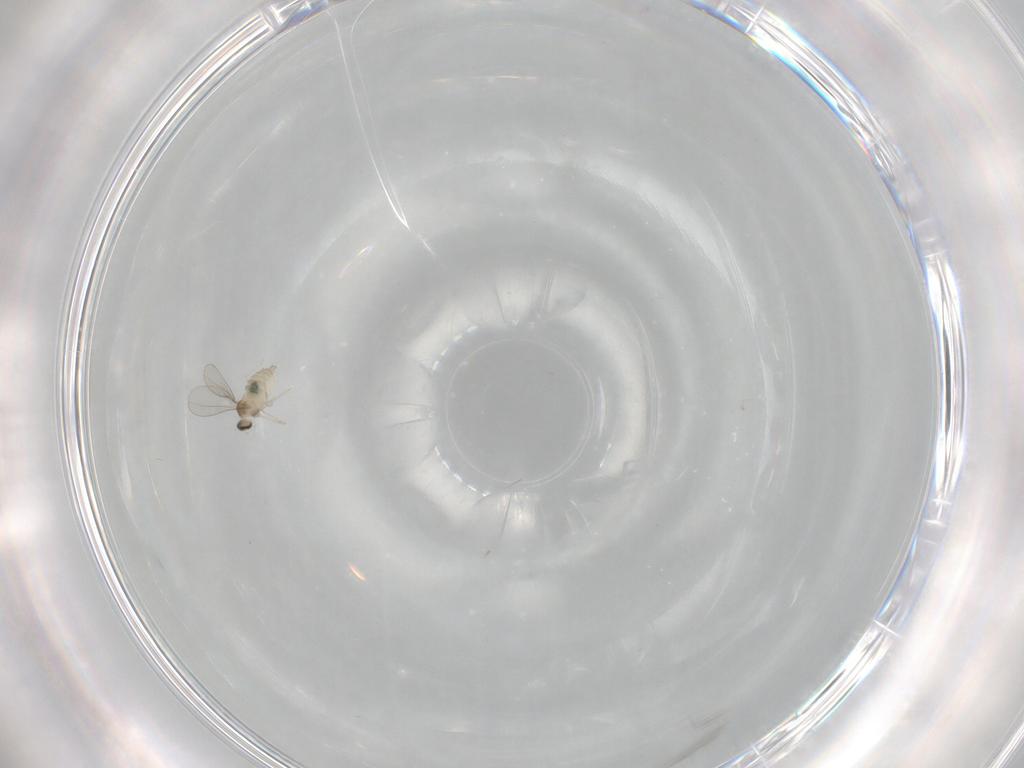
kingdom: Animalia
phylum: Arthropoda
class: Insecta
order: Diptera
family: Cecidomyiidae
